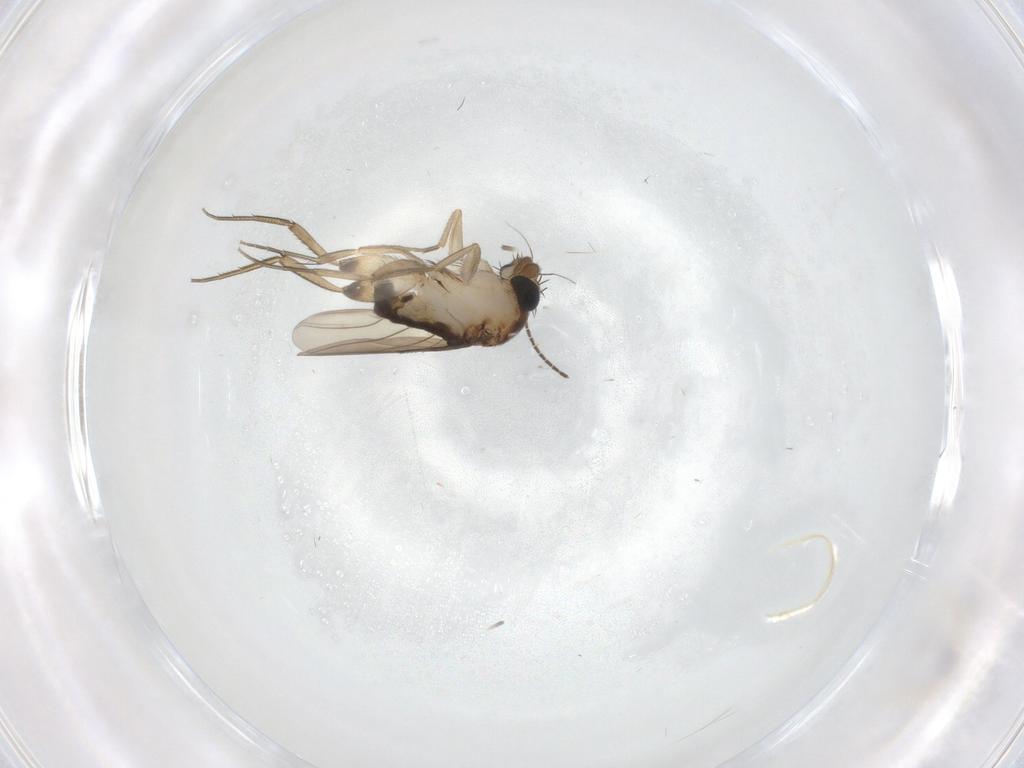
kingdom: Animalia
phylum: Arthropoda
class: Insecta
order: Diptera
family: Phoridae
